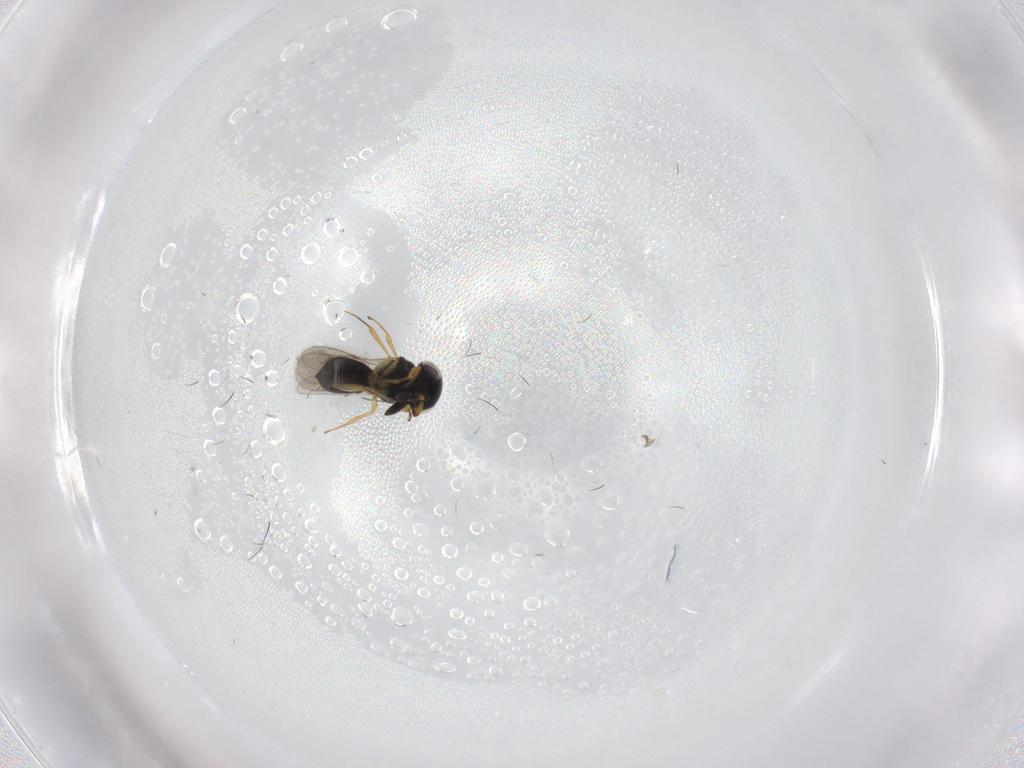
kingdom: Animalia
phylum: Arthropoda
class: Insecta
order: Hymenoptera
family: Scelionidae
